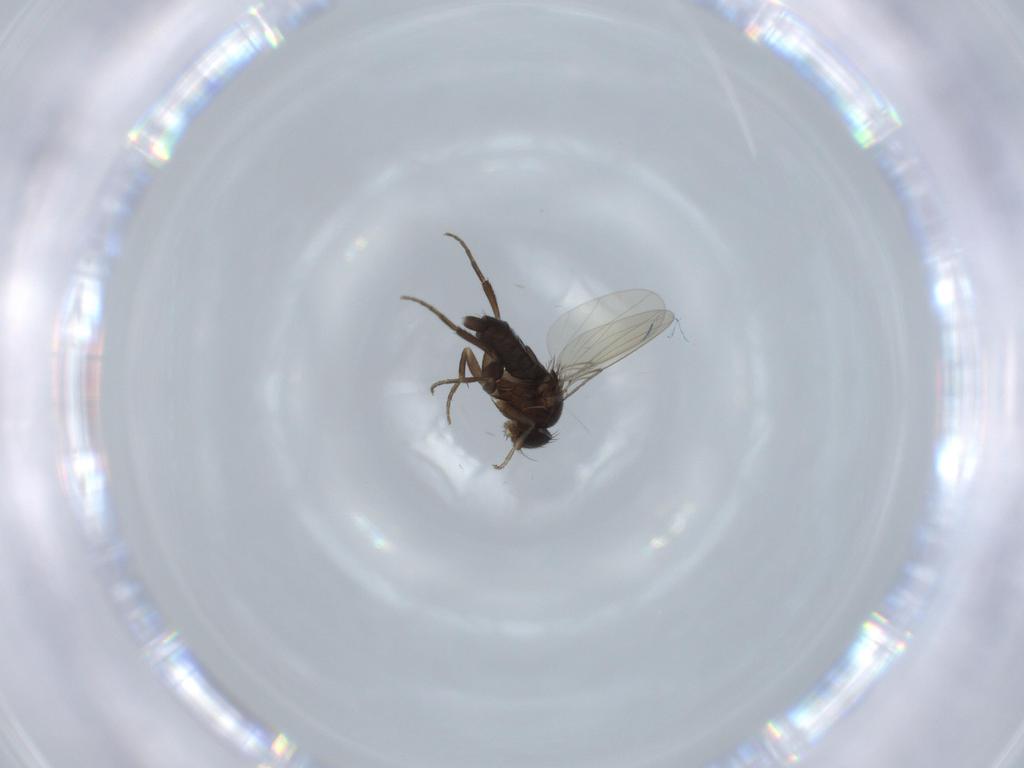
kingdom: Animalia
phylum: Arthropoda
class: Insecta
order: Diptera
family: Phoridae
